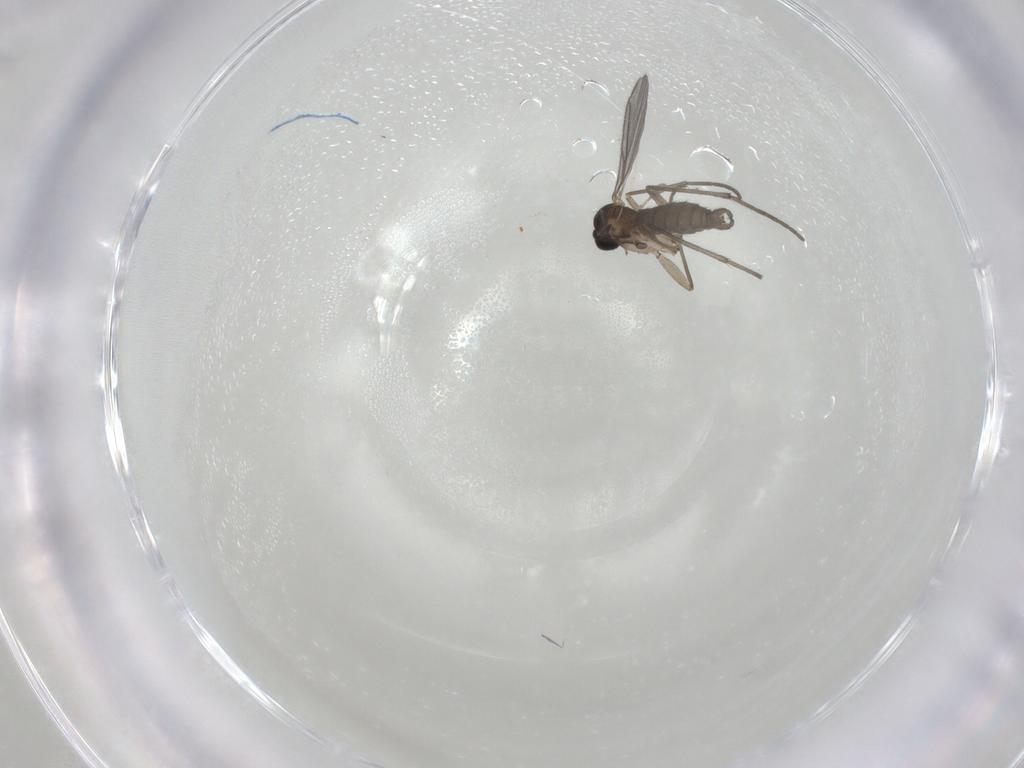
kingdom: Animalia
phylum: Arthropoda
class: Insecta
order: Diptera
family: Sciaridae
